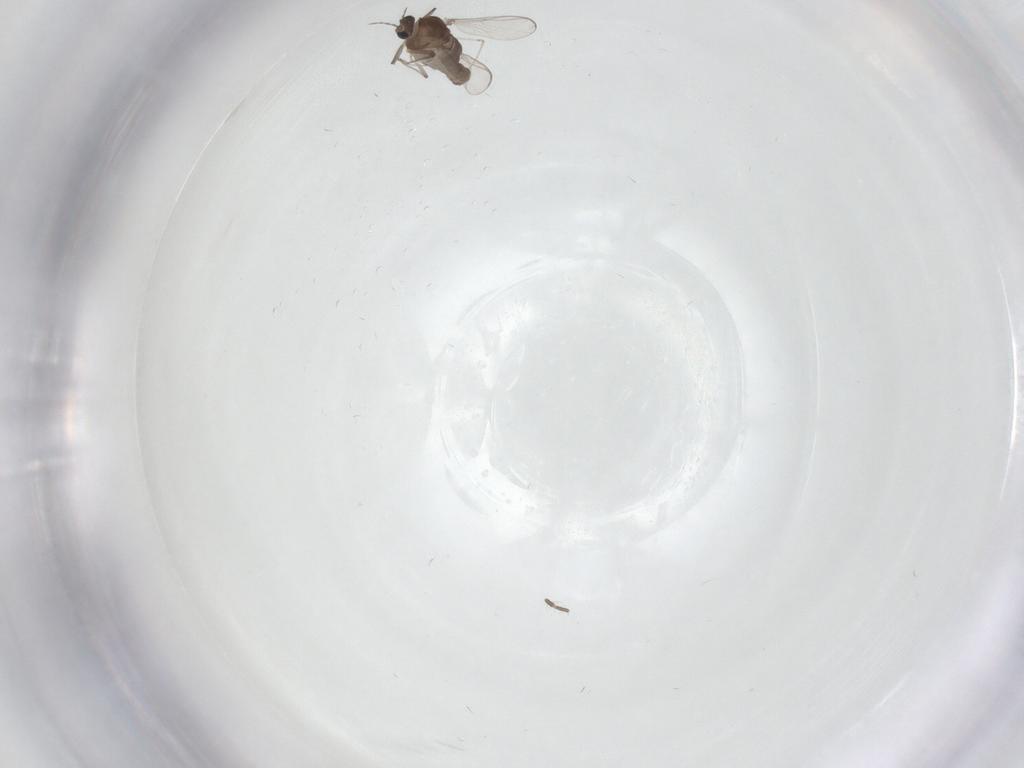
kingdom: Animalia
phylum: Arthropoda
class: Insecta
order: Diptera
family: Chironomidae
